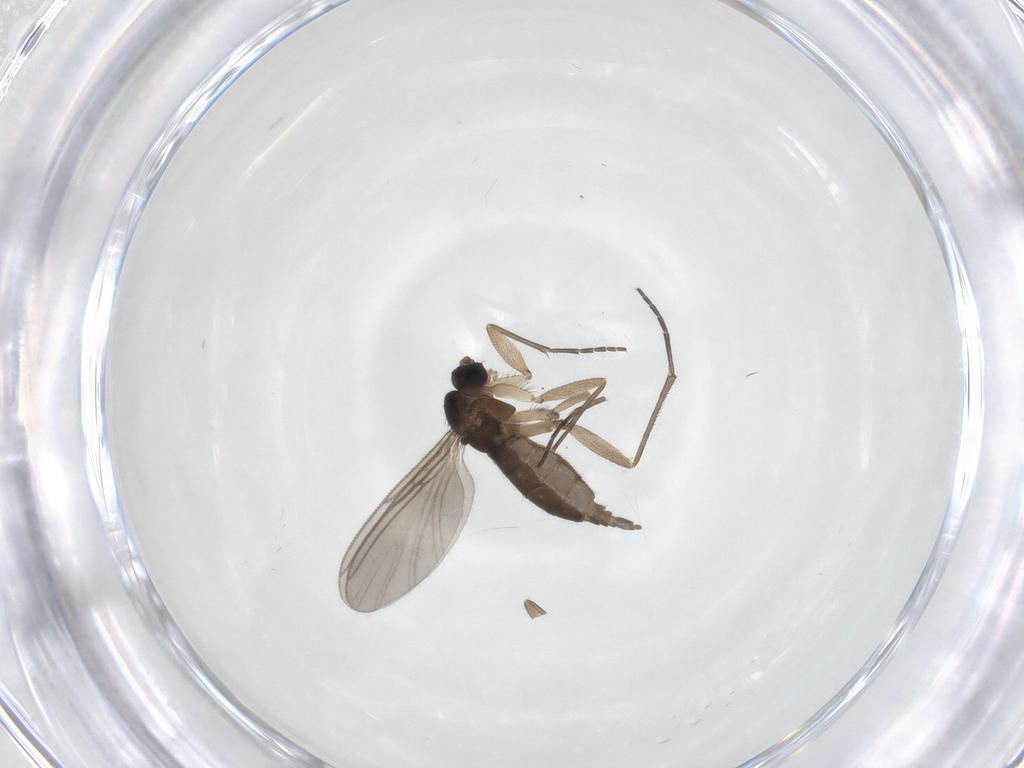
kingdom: Animalia
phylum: Arthropoda
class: Insecta
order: Diptera
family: Sciaridae
